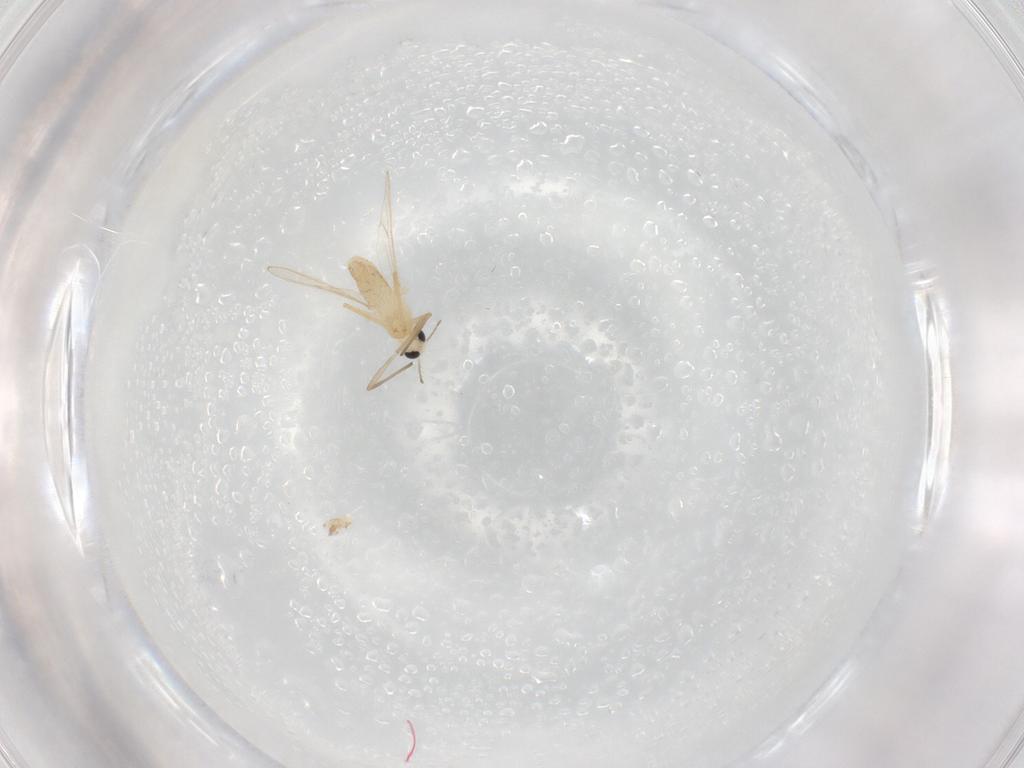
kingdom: Animalia
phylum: Arthropoda
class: Insecta
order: Diptera
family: Chironomidae
